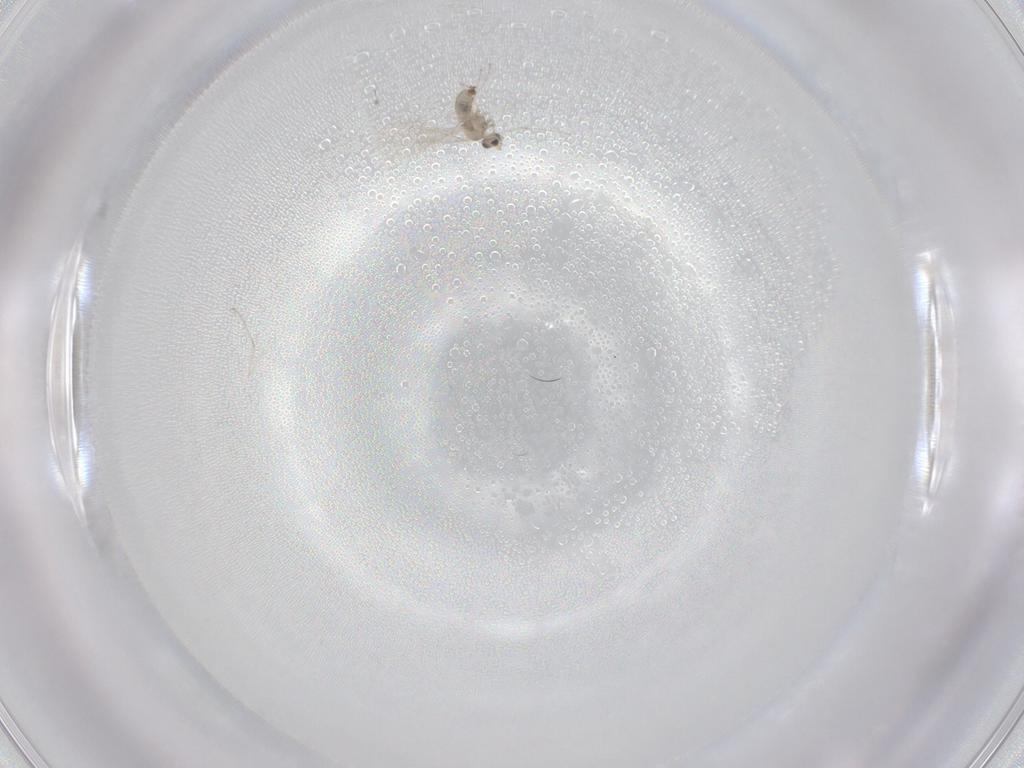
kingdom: Animalia
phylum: Arthropoda
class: Insecta
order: Diptera
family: Cecidomyiidae
